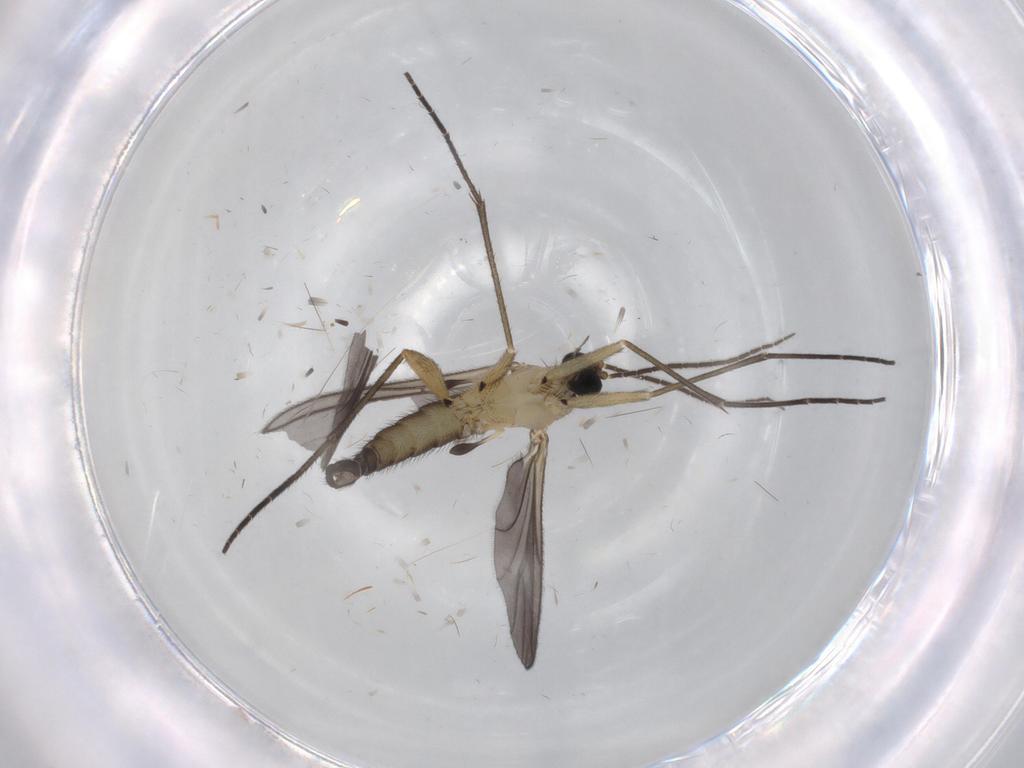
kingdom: Animalia
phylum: Arthropoda
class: Insecta
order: Diptera
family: Sciaridae
